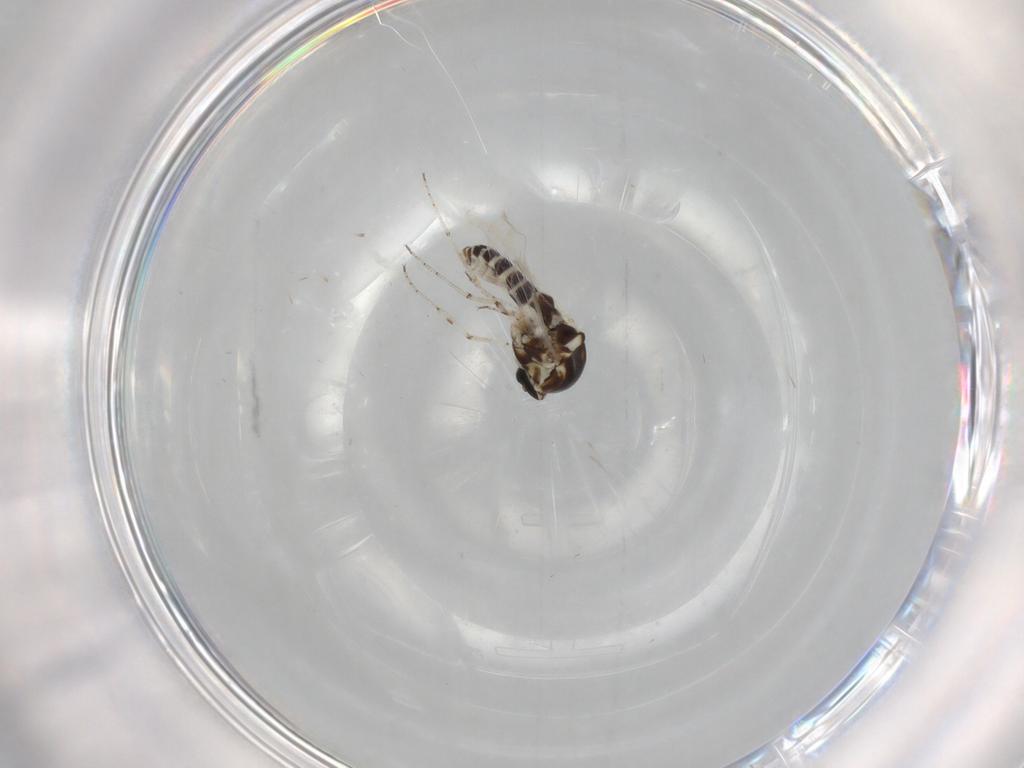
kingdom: Animalia
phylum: Arthropoda
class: Insecta
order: Diptera
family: Ceratopogonidae
